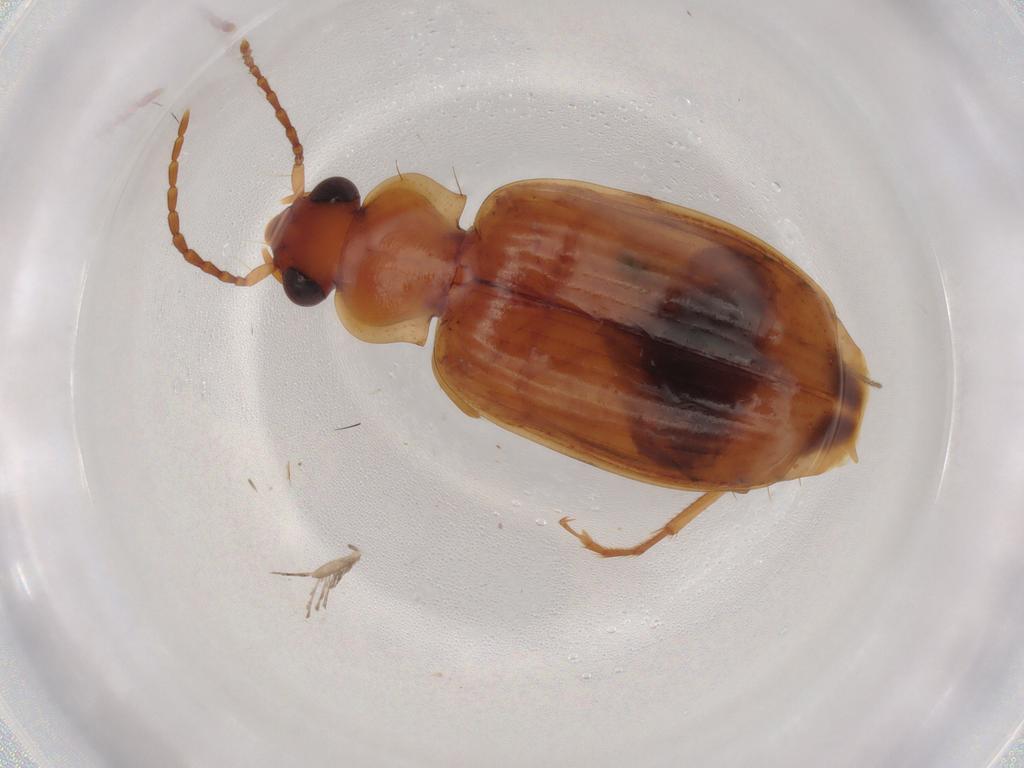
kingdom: Animalia
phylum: Arthropoda
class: Insecta
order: Coleoptera
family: Carabidae
